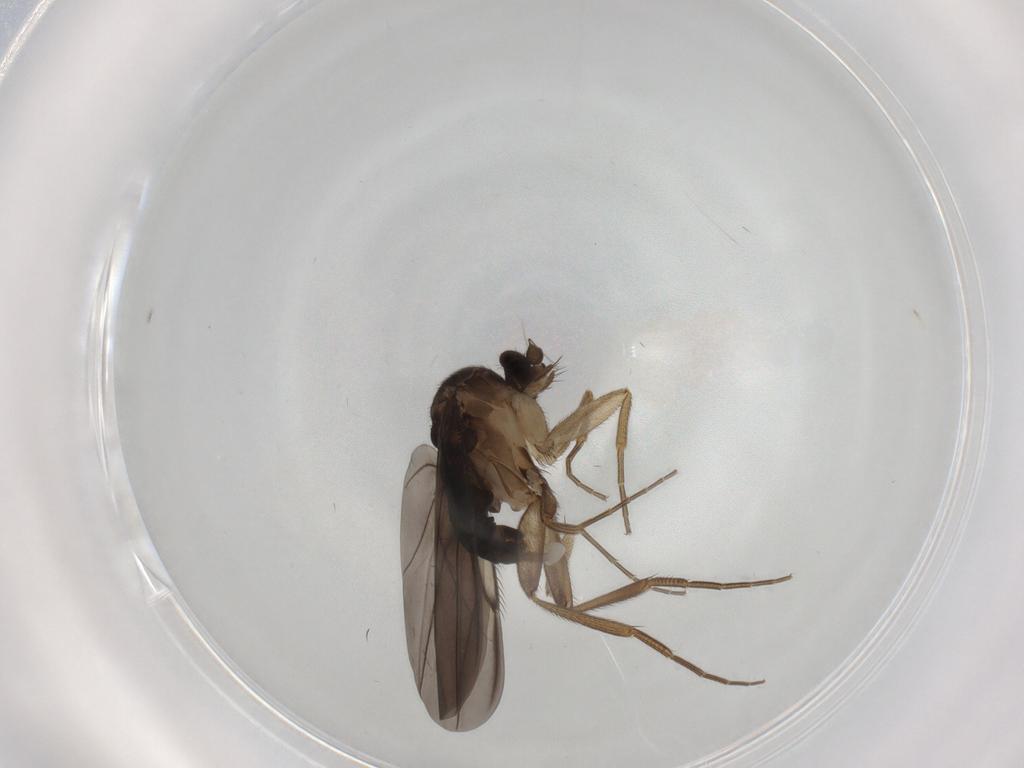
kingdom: Animalia
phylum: Arthropoda
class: Insecta
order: Diptera
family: Phoridae
